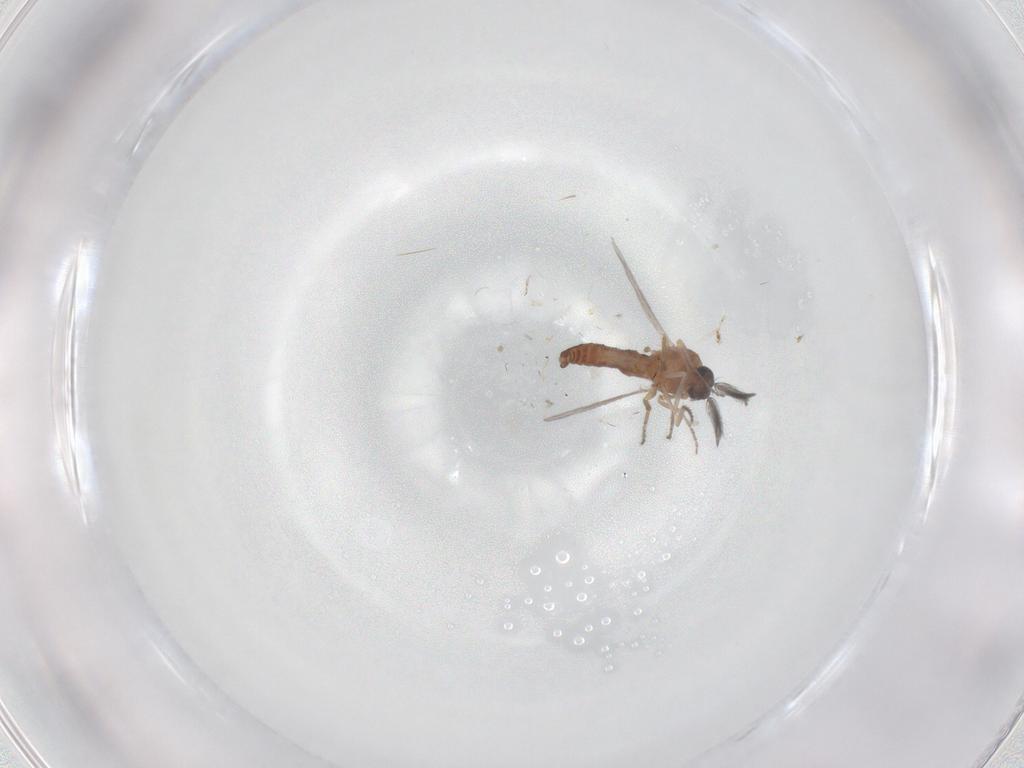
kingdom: Animalia
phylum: Arthropoda
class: Insecta
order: Diptera
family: Ceratopogonidae
